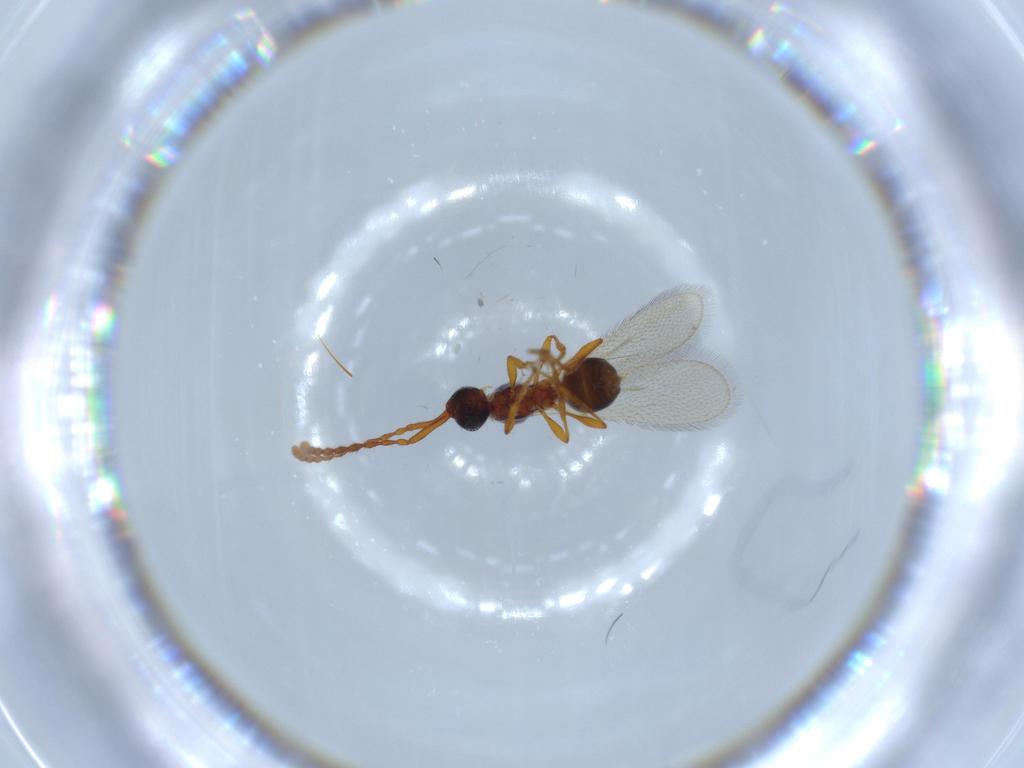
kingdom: Animalia
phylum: Arthropoda
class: Insecta
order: Hymenoptera
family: Diapriidae
